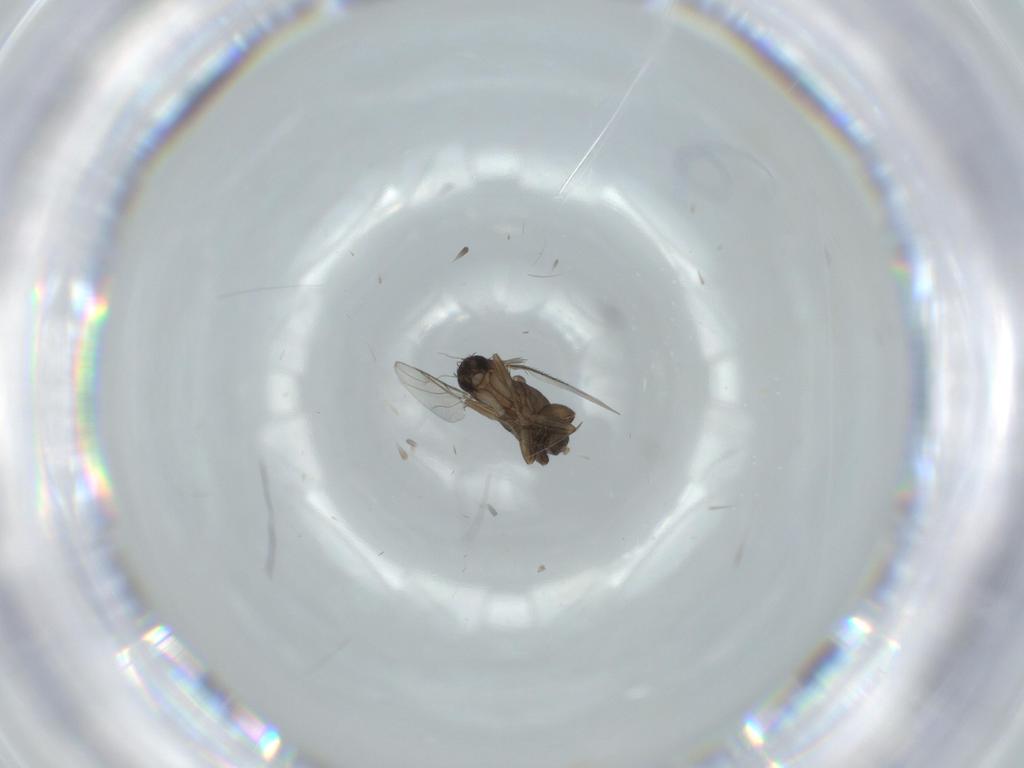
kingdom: Animalia
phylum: Arthropoda
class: Insecta
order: Diptera
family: Phoridae
